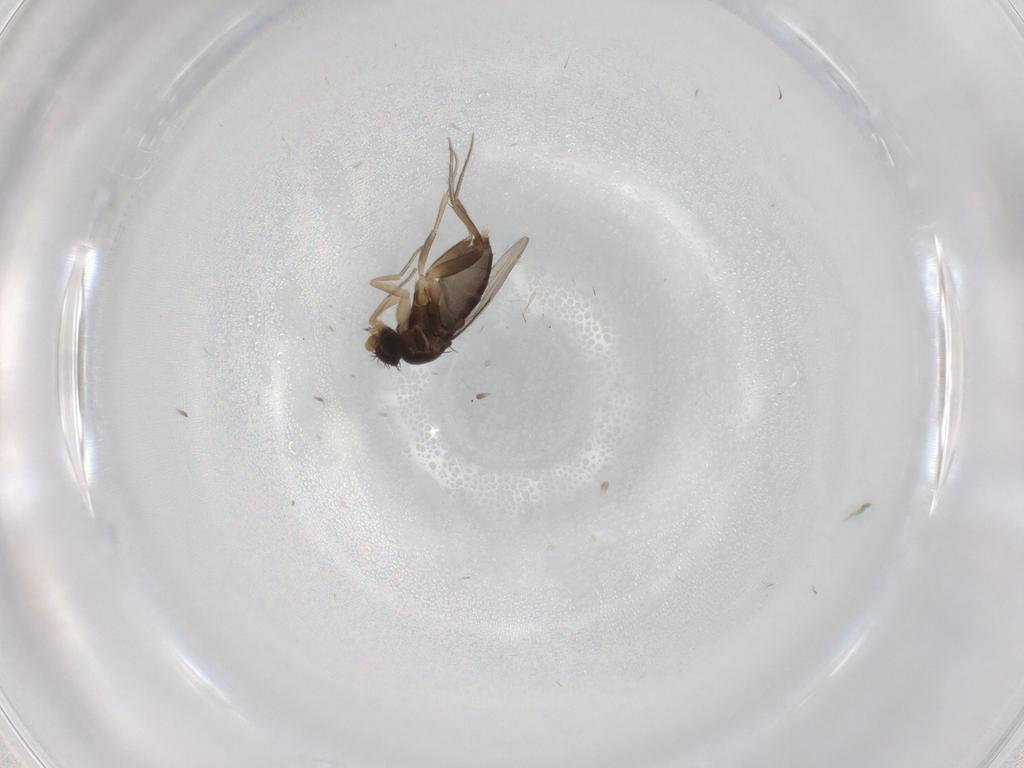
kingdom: Animalia
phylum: Arthropoda
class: Insecta
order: Diptera
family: Phoridae
